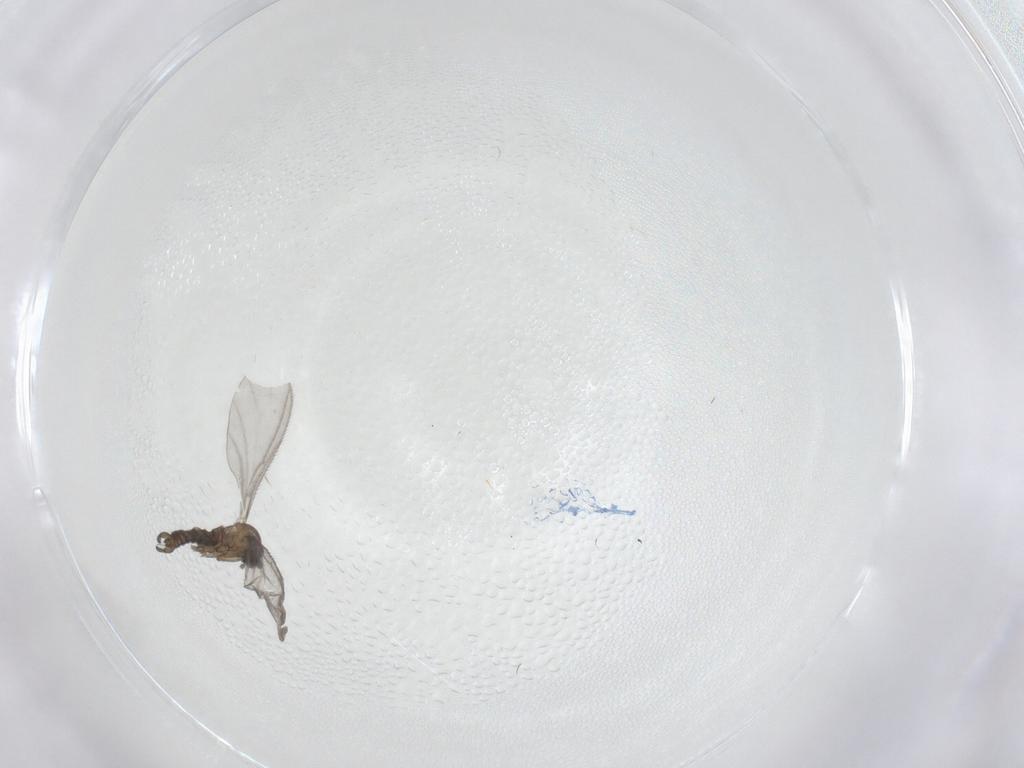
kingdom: Animalia
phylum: Arthropoda
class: Insecta
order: Diptera
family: Sciaridae
